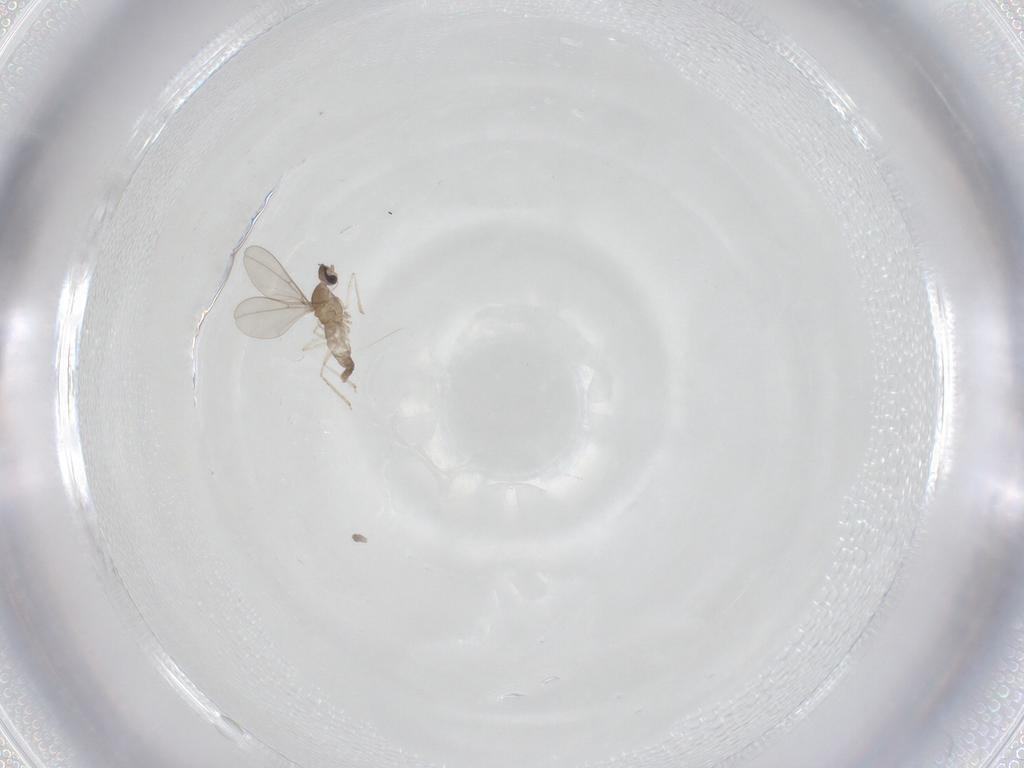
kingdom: Animalia
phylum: Arthropoda
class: Insecta
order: Diptera
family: Cecidomyiidae
